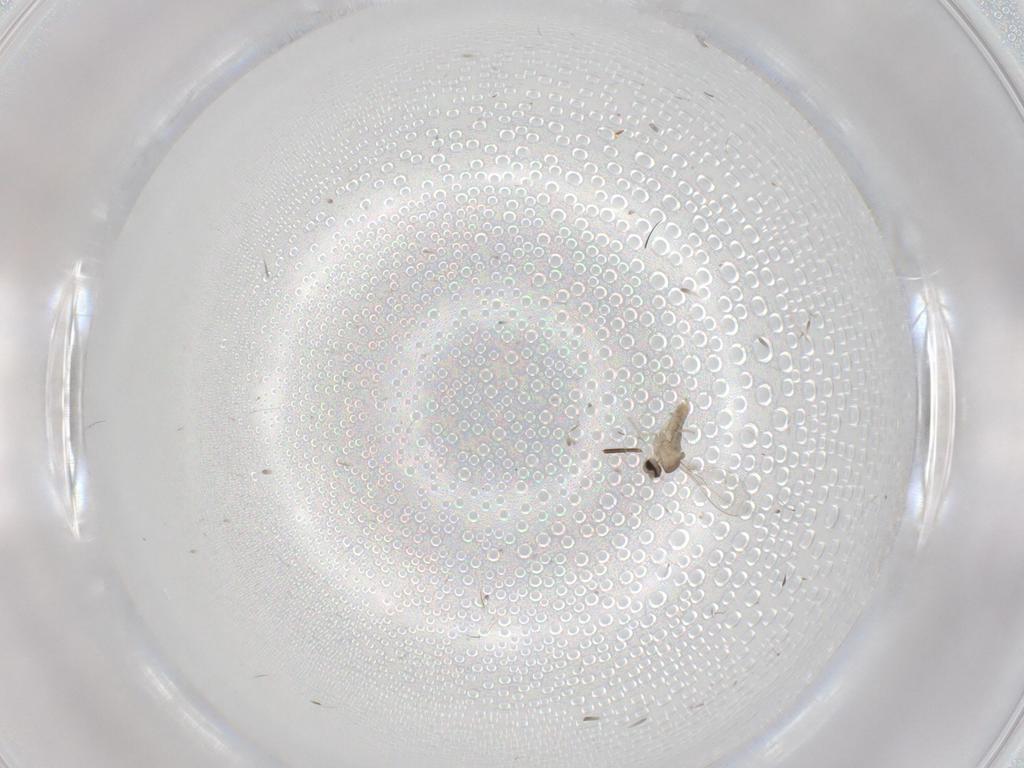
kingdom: Animalia
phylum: Arthropoda
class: Insecta
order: Diptera
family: Cecidomyiidae
